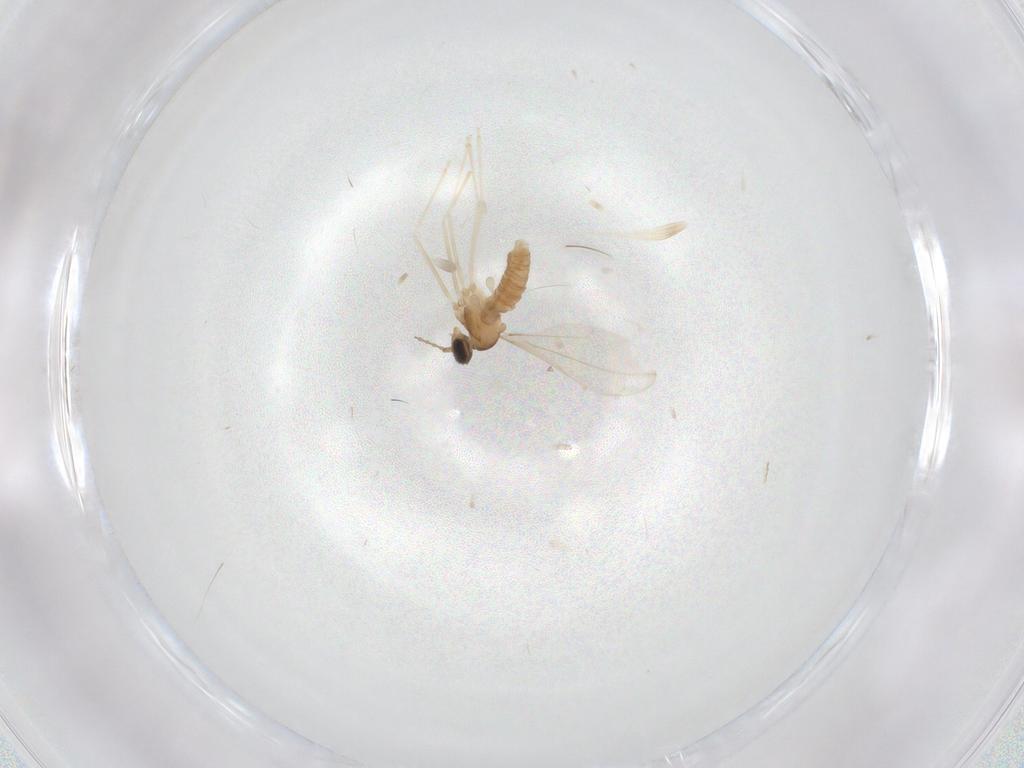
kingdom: Animalia
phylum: Arthropoda
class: Insecta
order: Diptera
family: Cecidomyiidae
